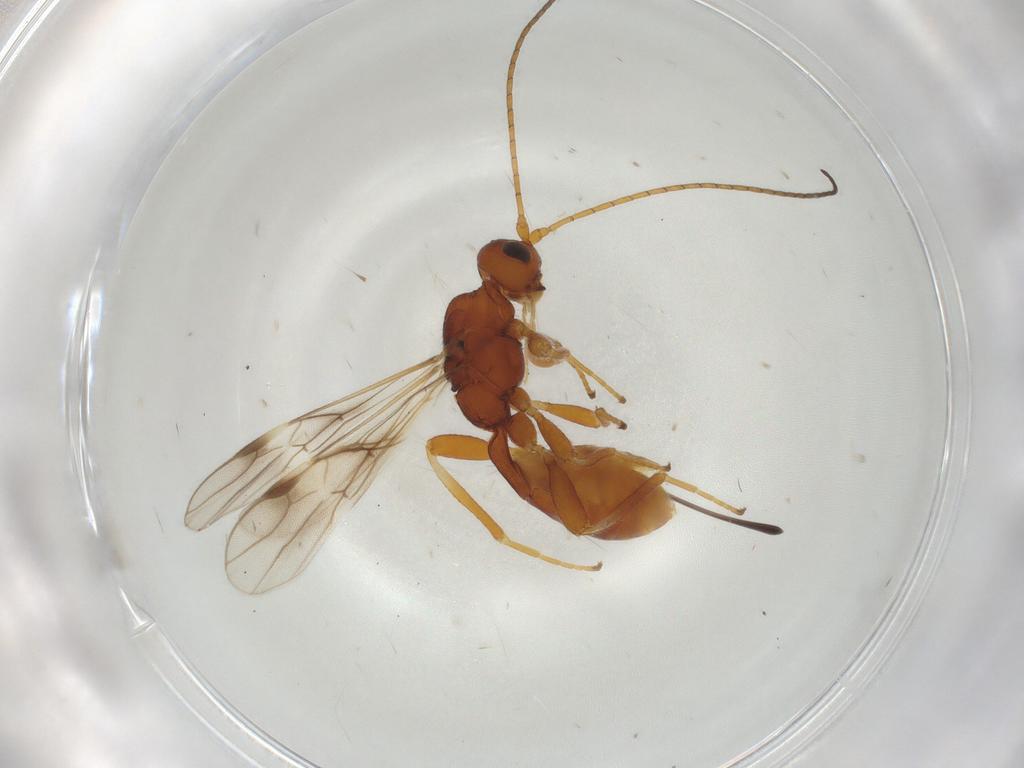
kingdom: Animalia
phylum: Arthropoda
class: Insecta
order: Hymenoptera
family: Braconidae
